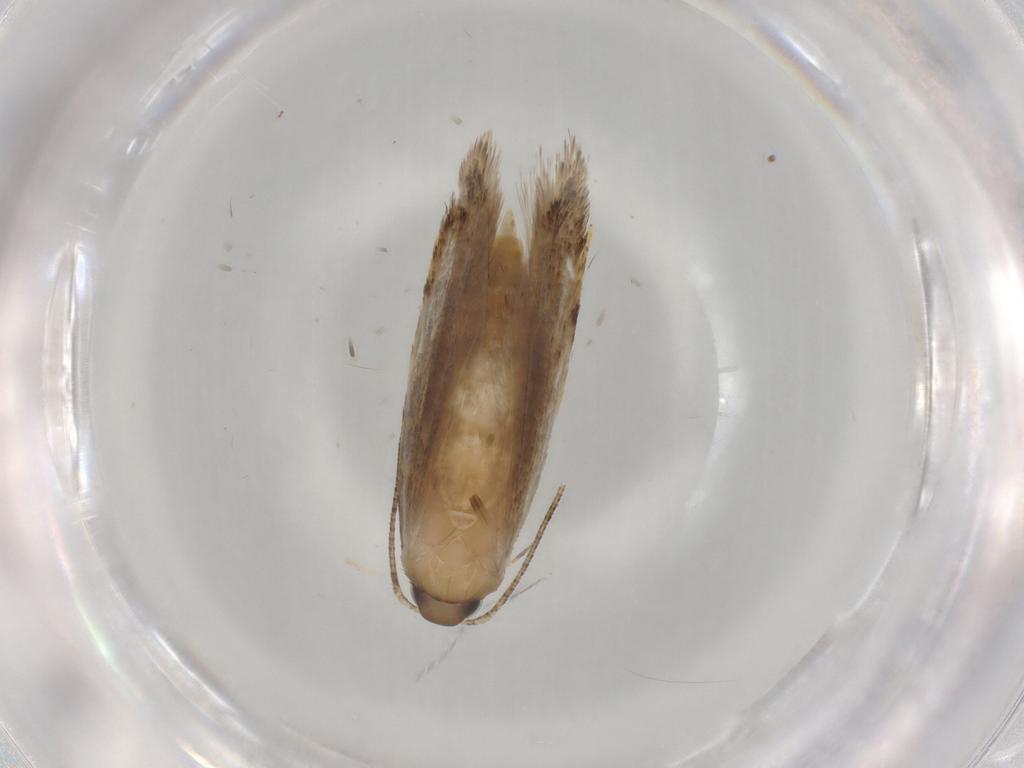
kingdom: Animalia
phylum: Arthropoda
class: Insecta
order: Lepidoptera
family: Autostichidae
